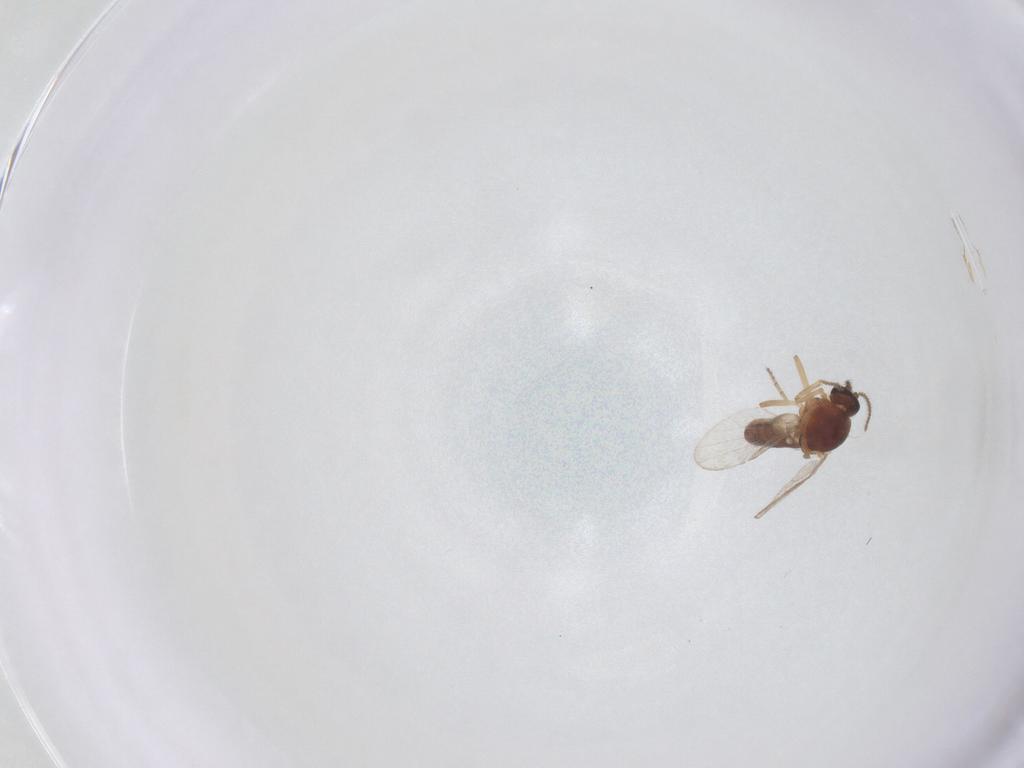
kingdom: Animalia
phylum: Arthropoda
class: Insecta
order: Diptera
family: Sciaridae
